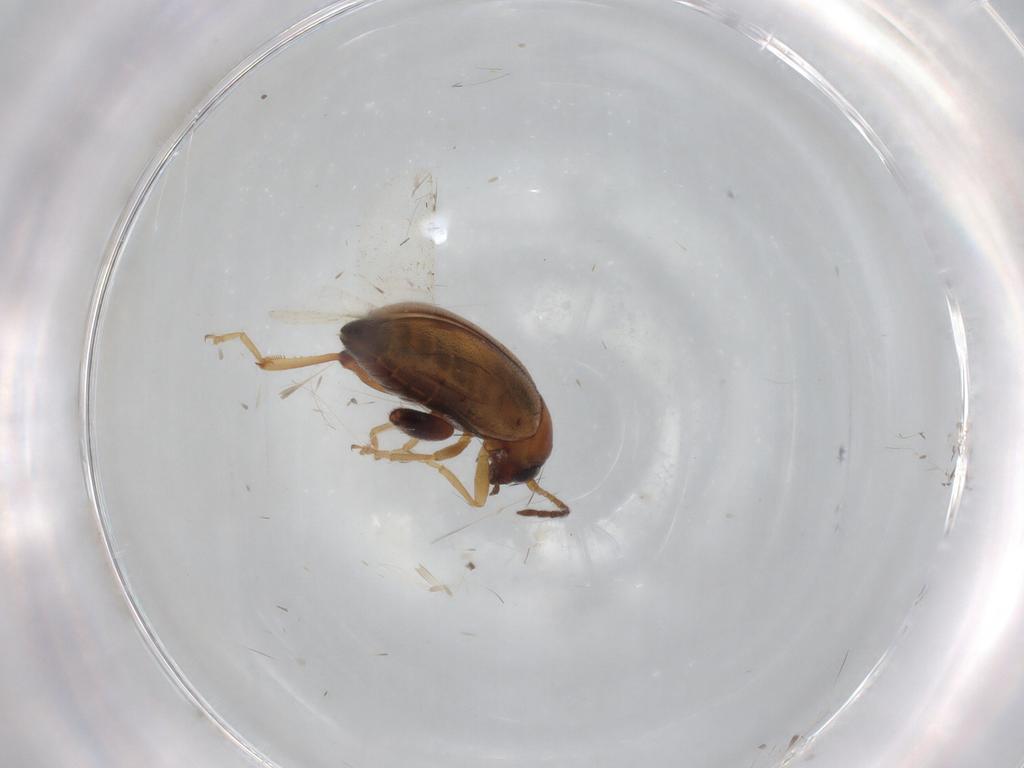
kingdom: Animalia
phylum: Arthropoda
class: Insecta
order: Coleoptera
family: Chrysomelidae
